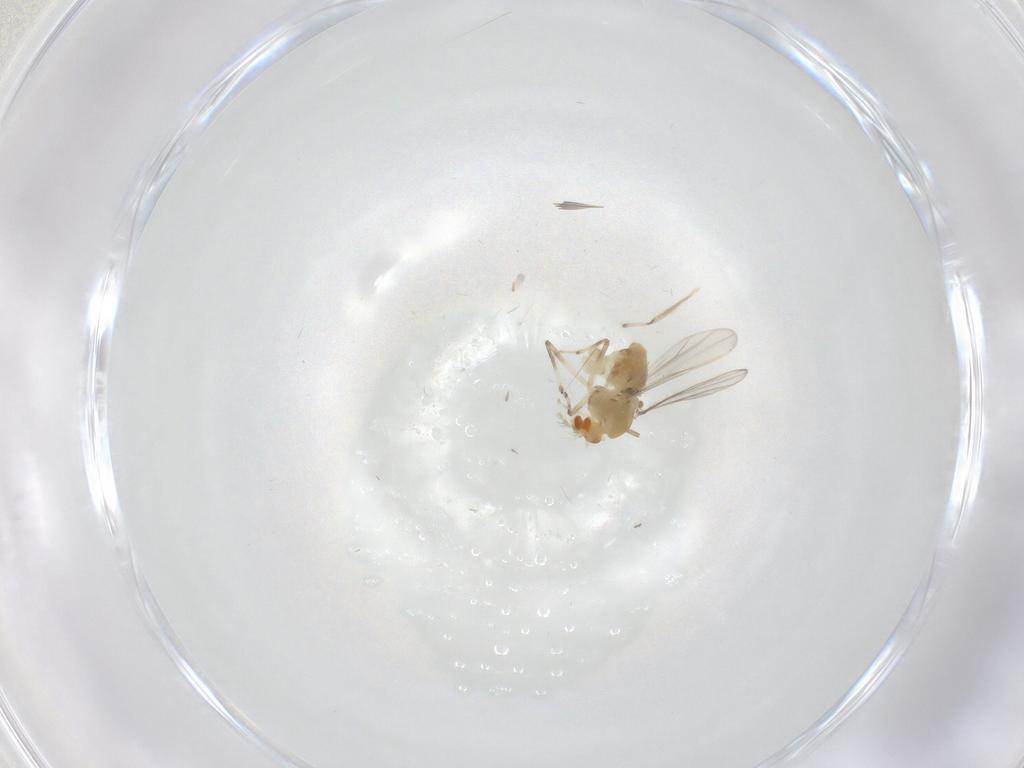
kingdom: Animalia
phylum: Arthropoda
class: Insecta
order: Diptera
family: Chironomidae
